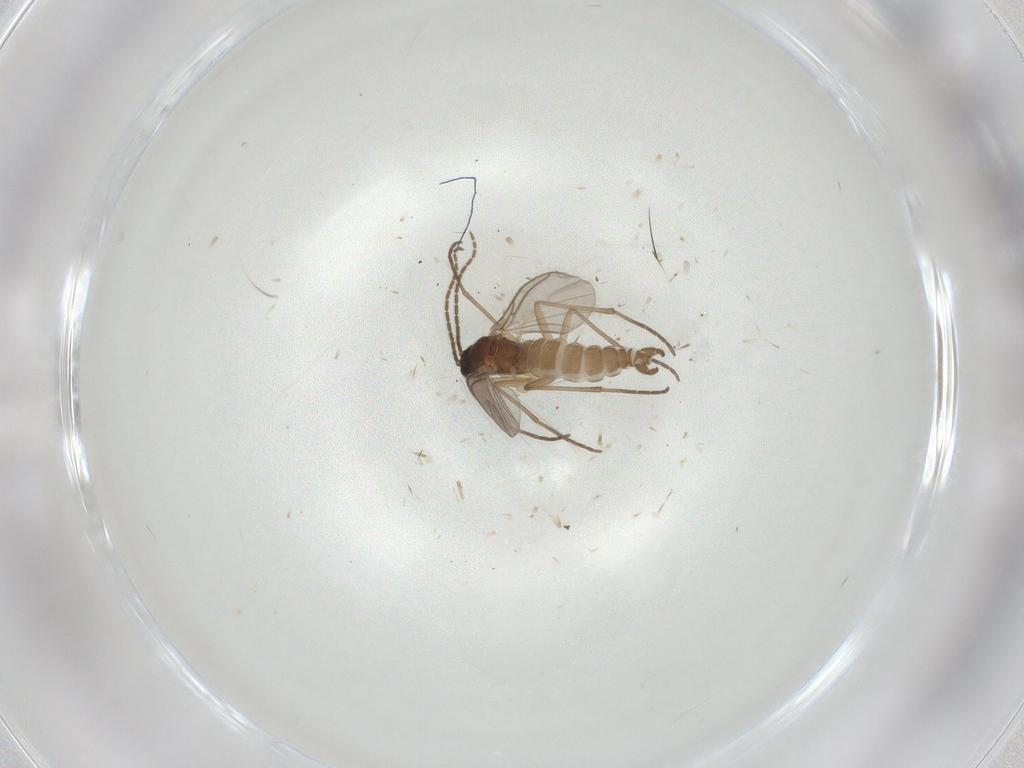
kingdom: Animalia
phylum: Arthropoda
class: Insecta
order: Diptera
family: Sciaridae
